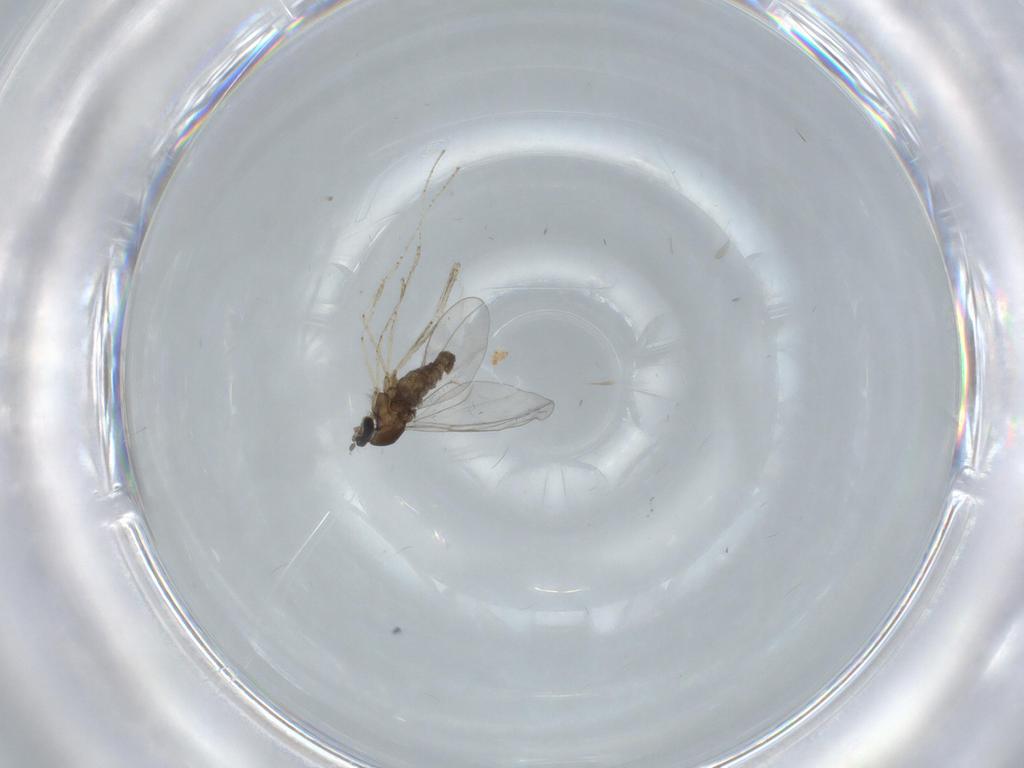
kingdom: Animalia
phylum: Arthropoda
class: Insecta
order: Diptera
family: Cecidomyiidae
